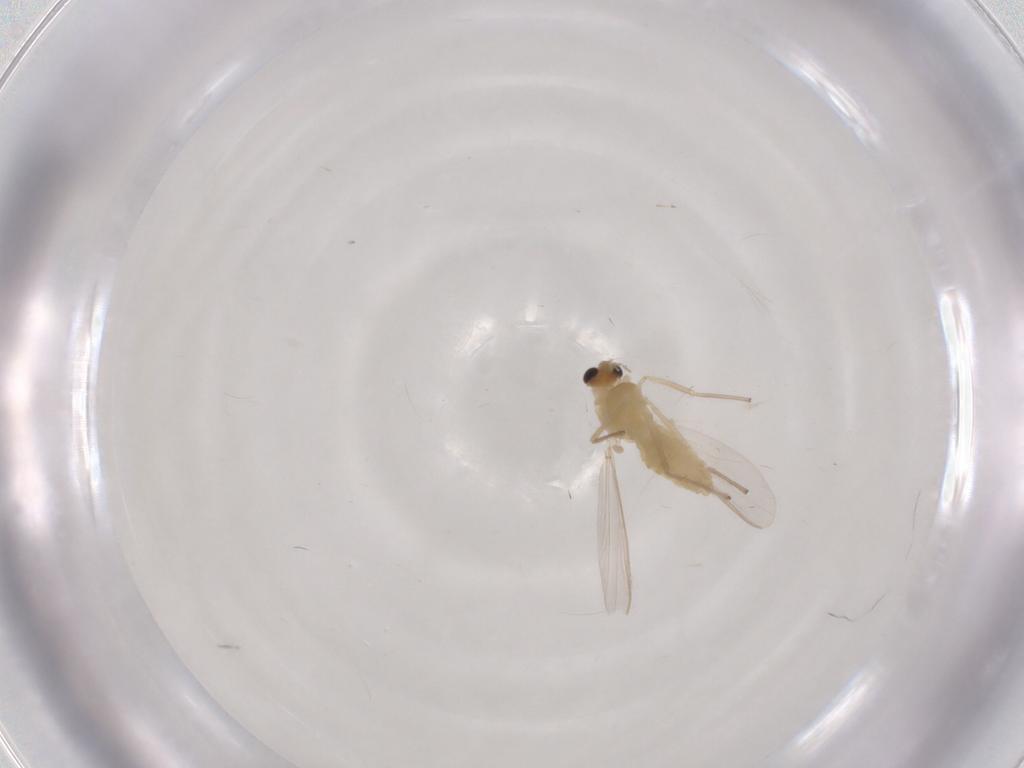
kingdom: Animalia
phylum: Arthropoda
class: Insecta
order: Diptera
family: Chironomidae
